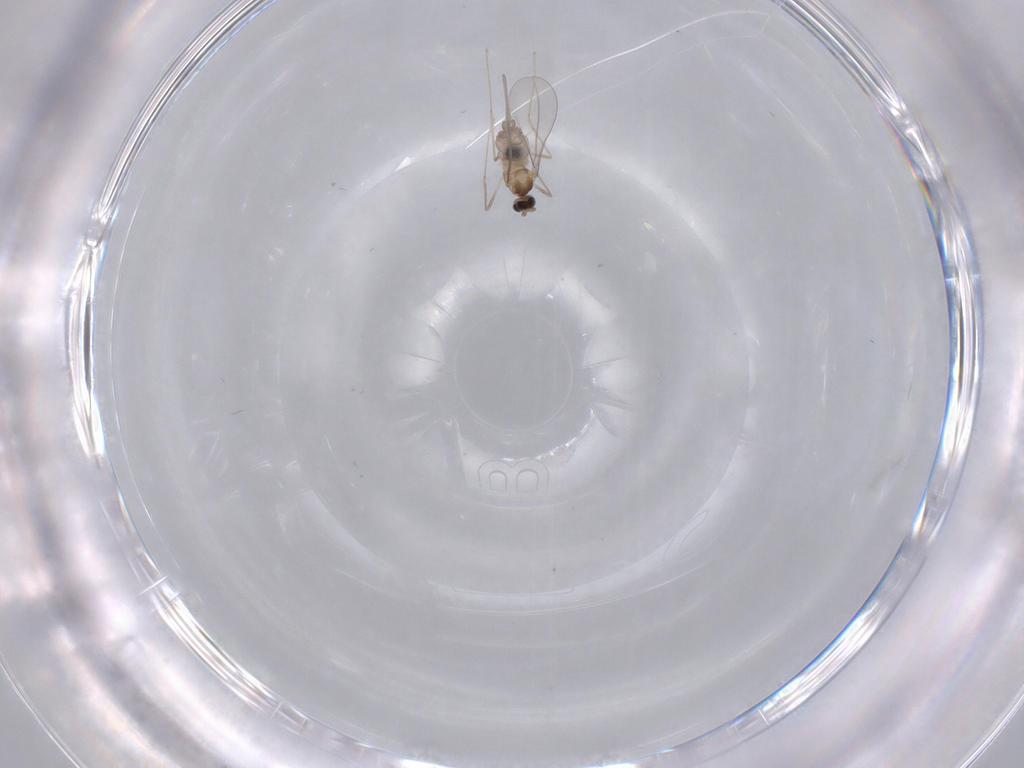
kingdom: Animalia
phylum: Arthropoda
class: Insecta
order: Diptera
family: Cecidomyiidae
